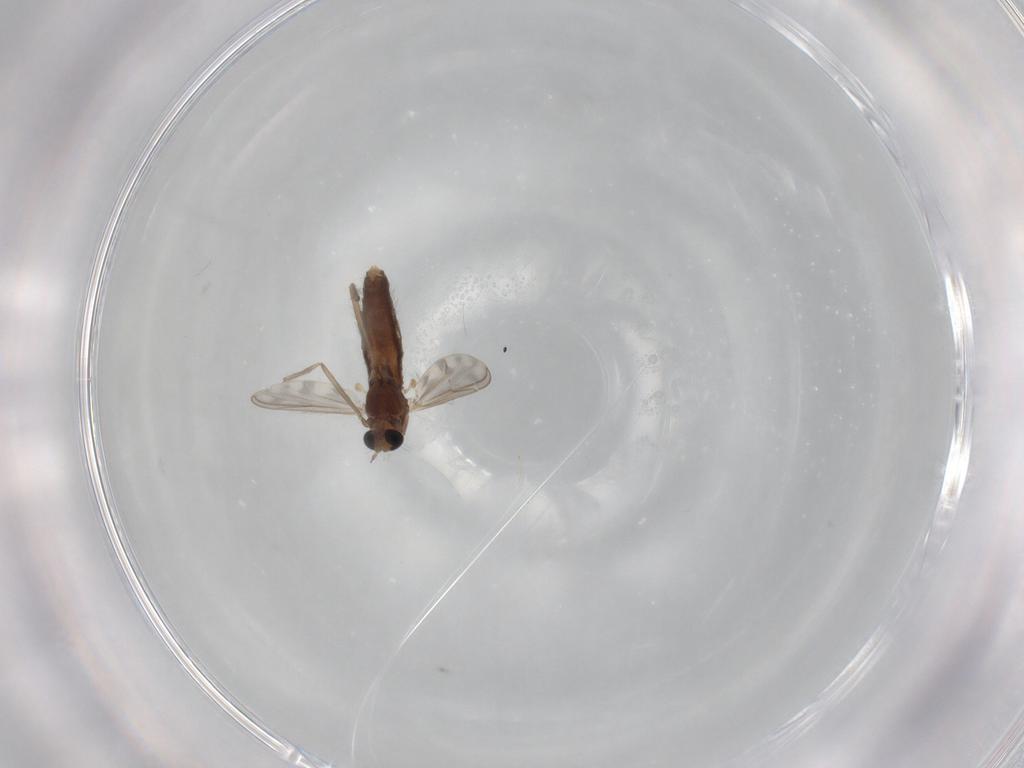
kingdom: Animalia
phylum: Arthropoda
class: Insecta
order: Diptera
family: Chironomidae
